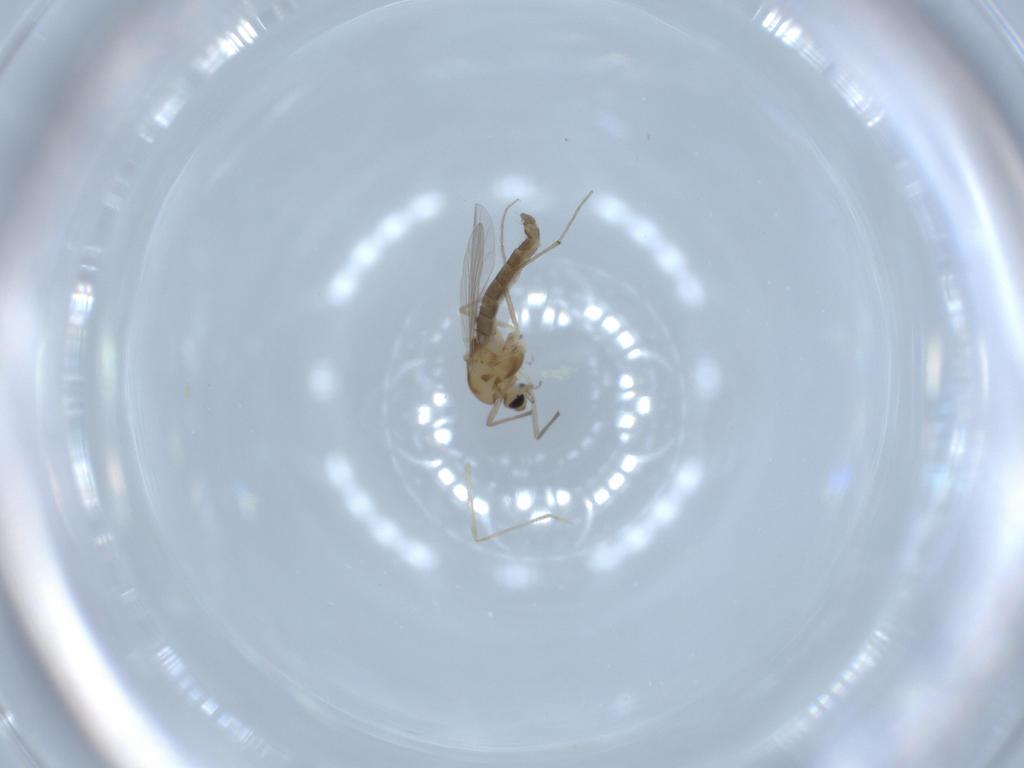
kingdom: Animalia
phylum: Arthropoda
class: Insecta
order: Diptera
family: Chironomidae
